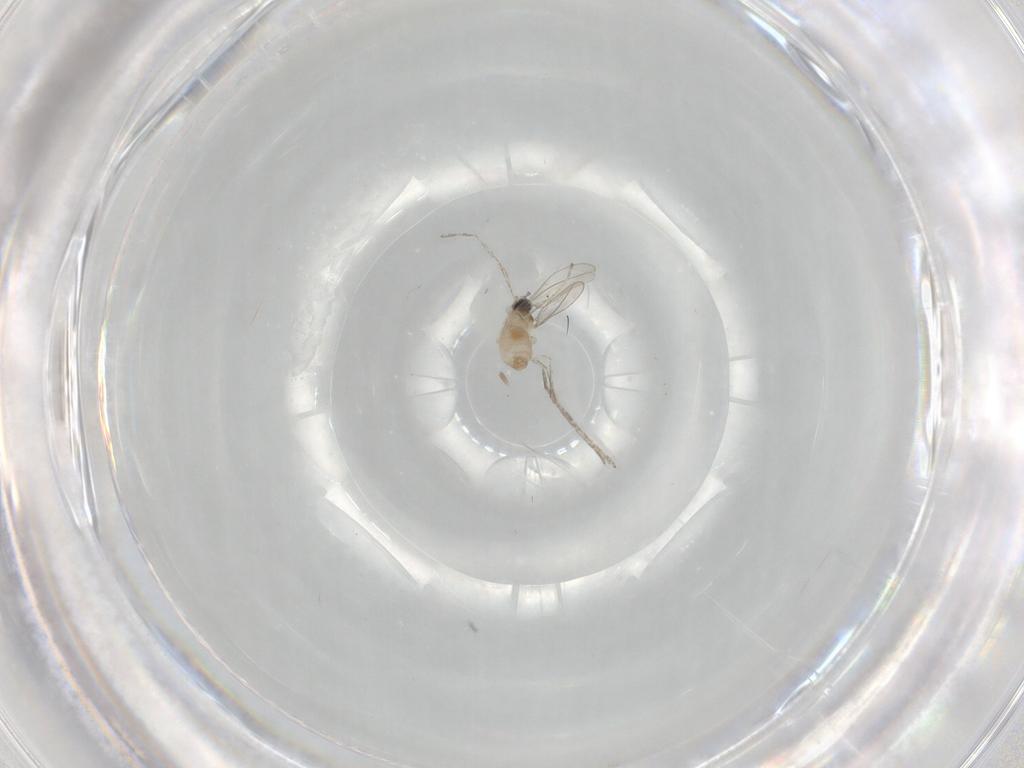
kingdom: Animalia
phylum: Arthropoda
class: Insecta
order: Diptera
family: Cecidomyiidae
